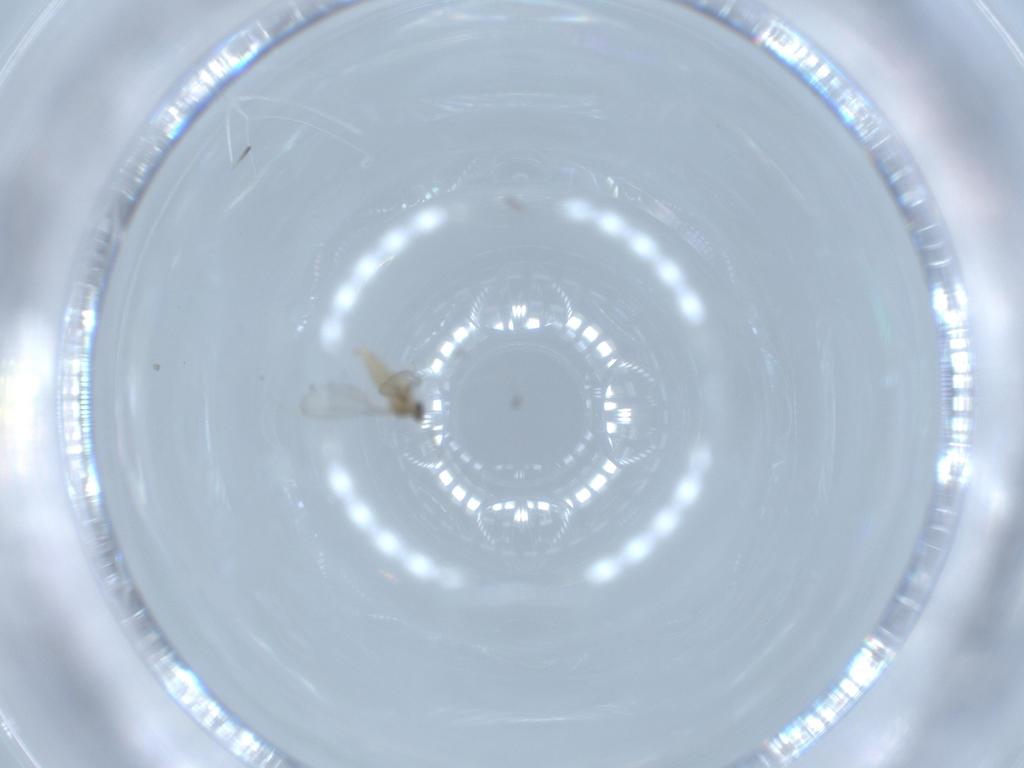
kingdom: Animalia
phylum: Arthropoda
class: Insecta
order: Diptera
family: Cecidomyiidae
